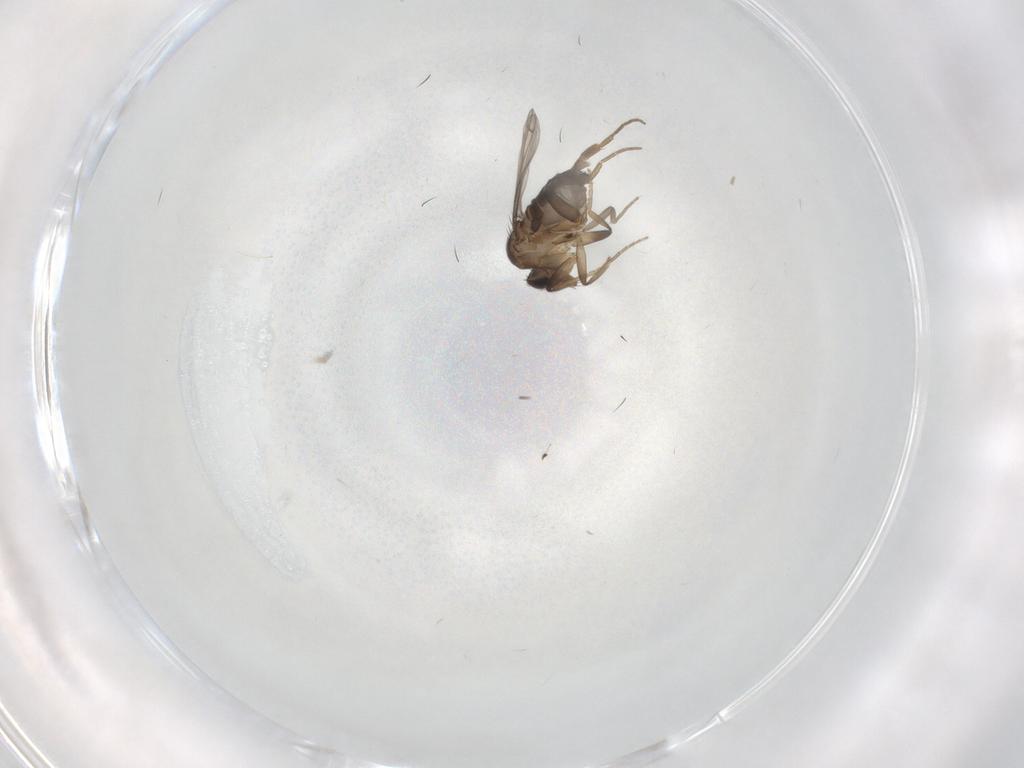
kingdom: Animalia
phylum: Arthropoda
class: Insecta
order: Diptera
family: Sciaridae
